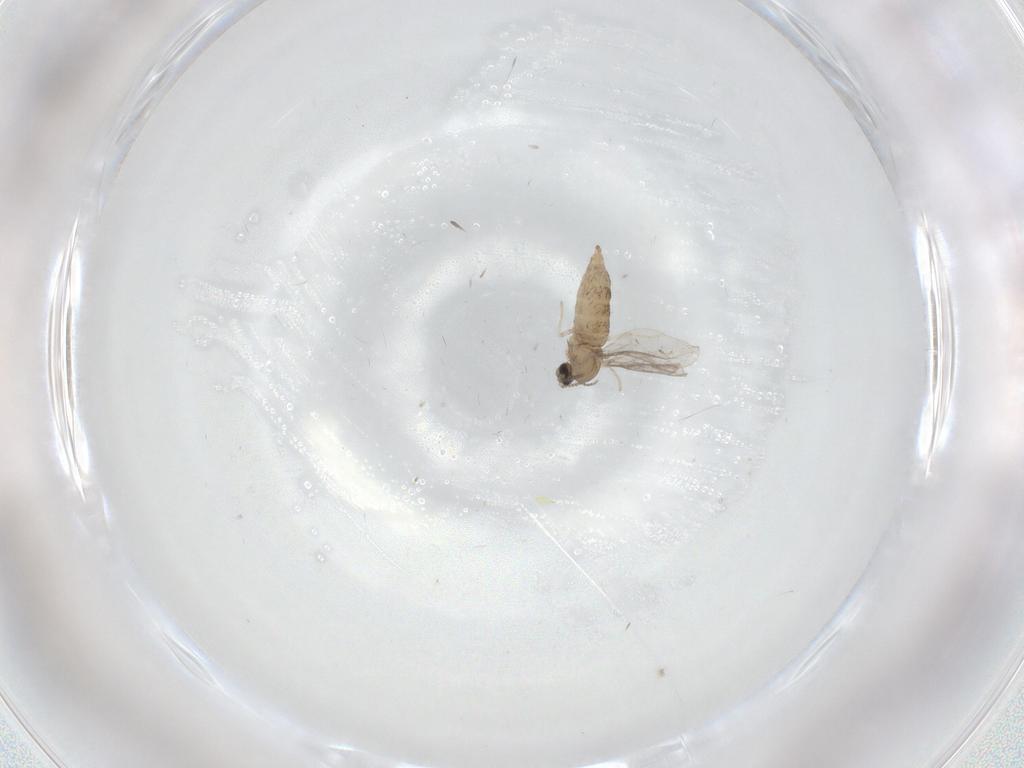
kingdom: Animalia
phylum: Arthropoda
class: Insecta
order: Diptera
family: Cecidomyiidae
